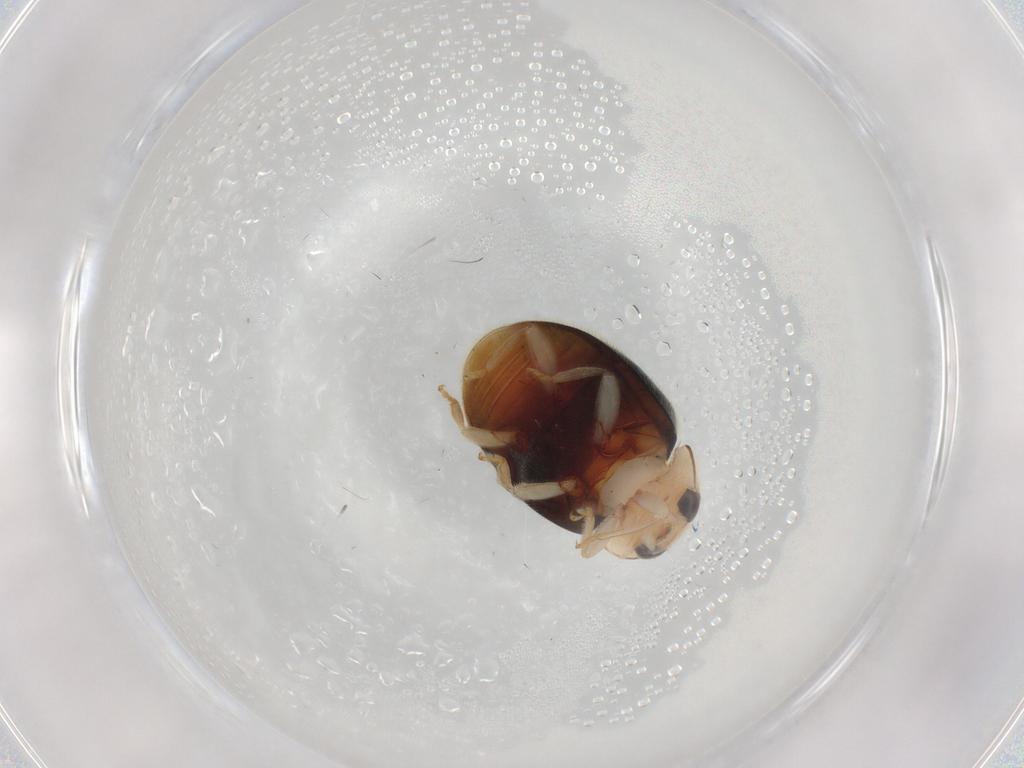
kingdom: Animalia
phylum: Arthropoda
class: Insecta
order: Coleoptera
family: Coccinellidae
